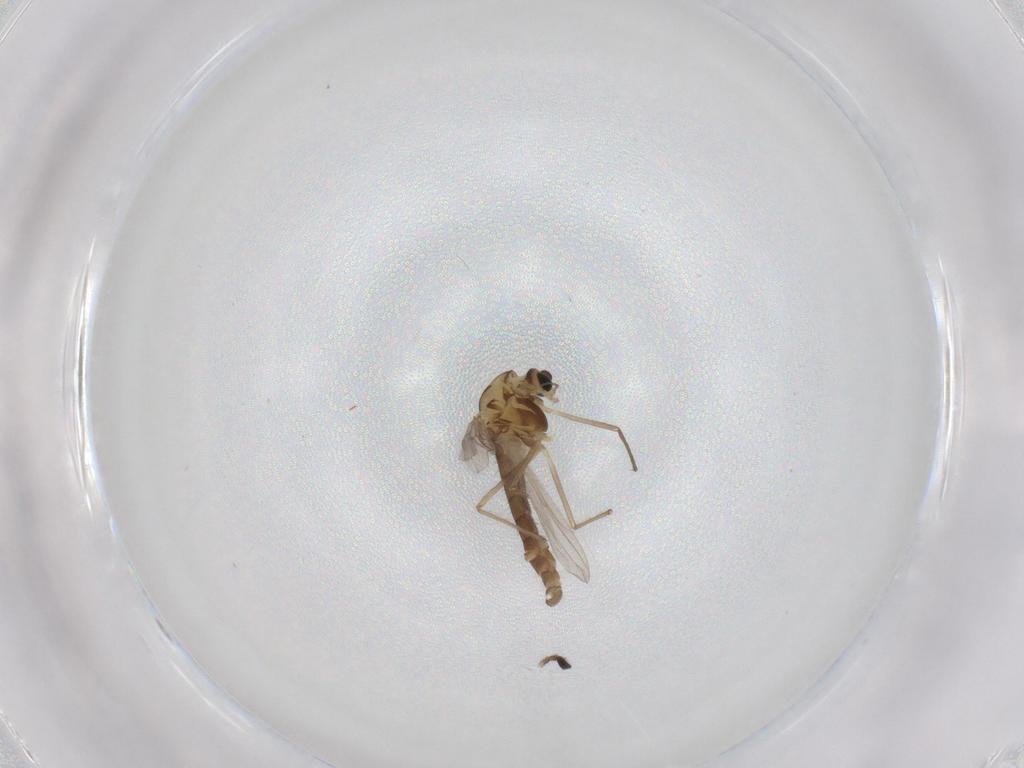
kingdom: Animalia
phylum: Arthropoda
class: Insecta
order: Diptera
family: Chironomidae
